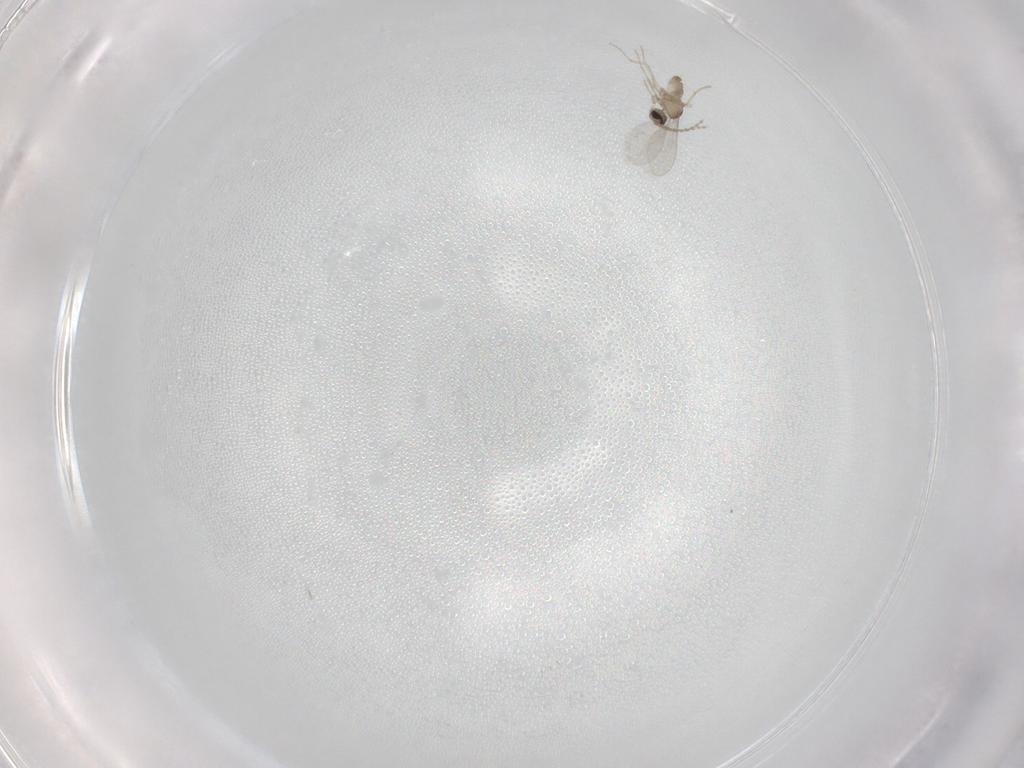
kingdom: Animalia
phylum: Arthropoda
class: Insecta
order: Diptera
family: Phoridae
